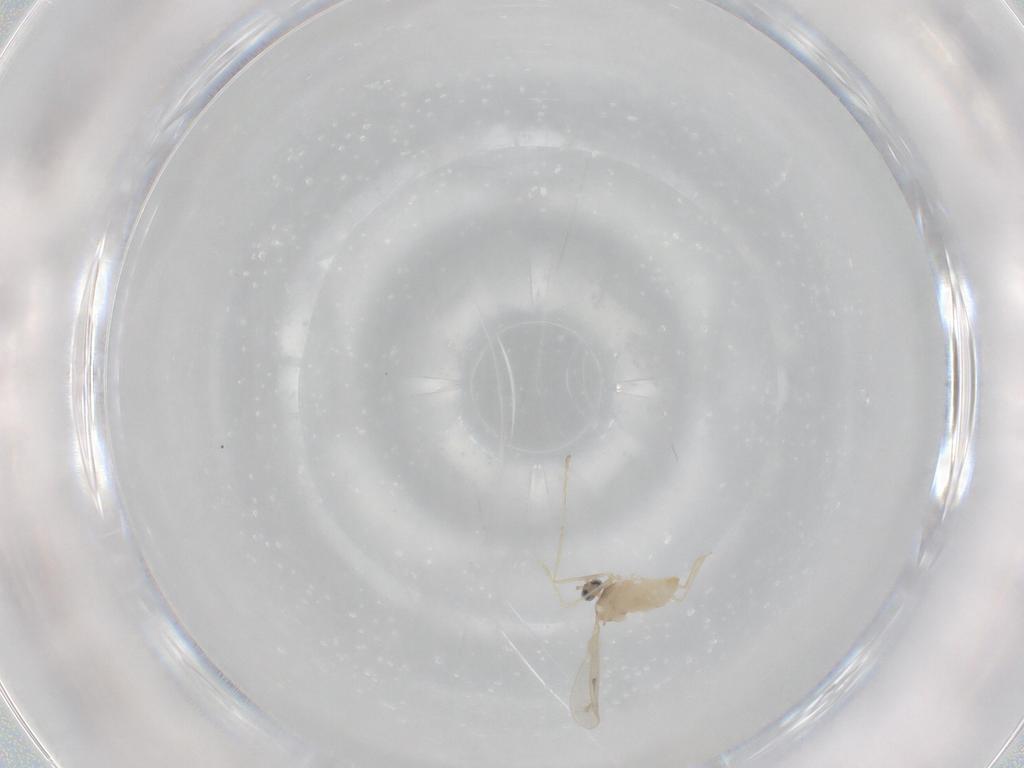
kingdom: Animalia
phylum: Arthropoda
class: Insecta
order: Diptera
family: Cecidomyiidae
